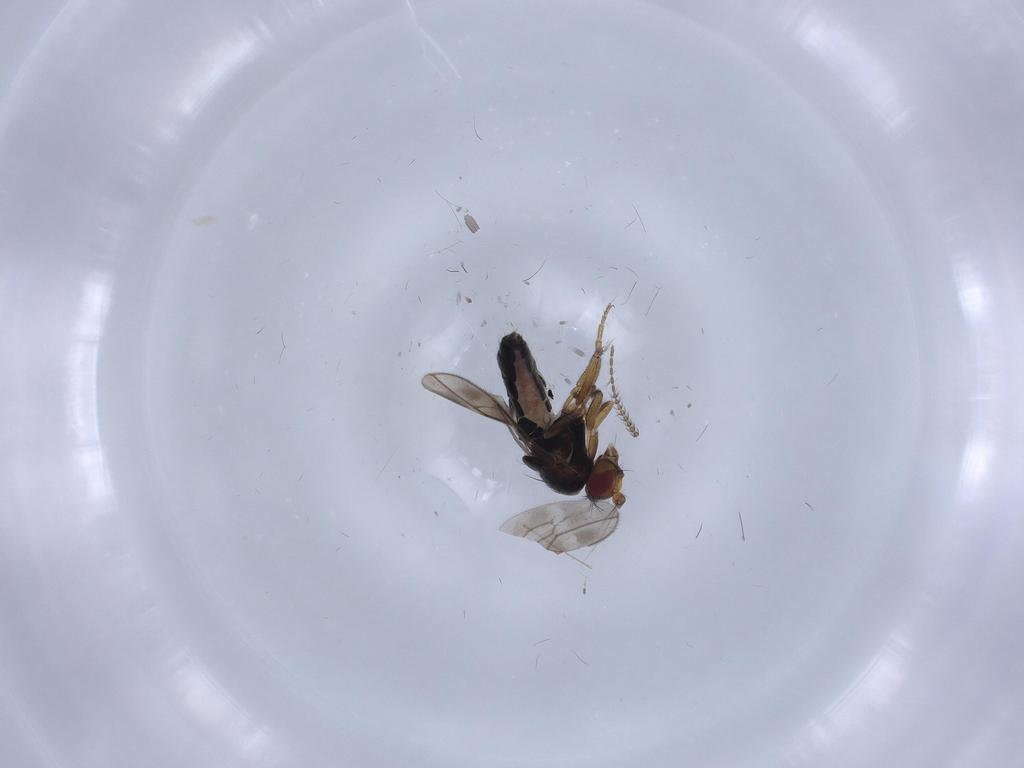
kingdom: Animalia
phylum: Arthropoda
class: Insecta
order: Diptera
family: Sphaeroceridae
